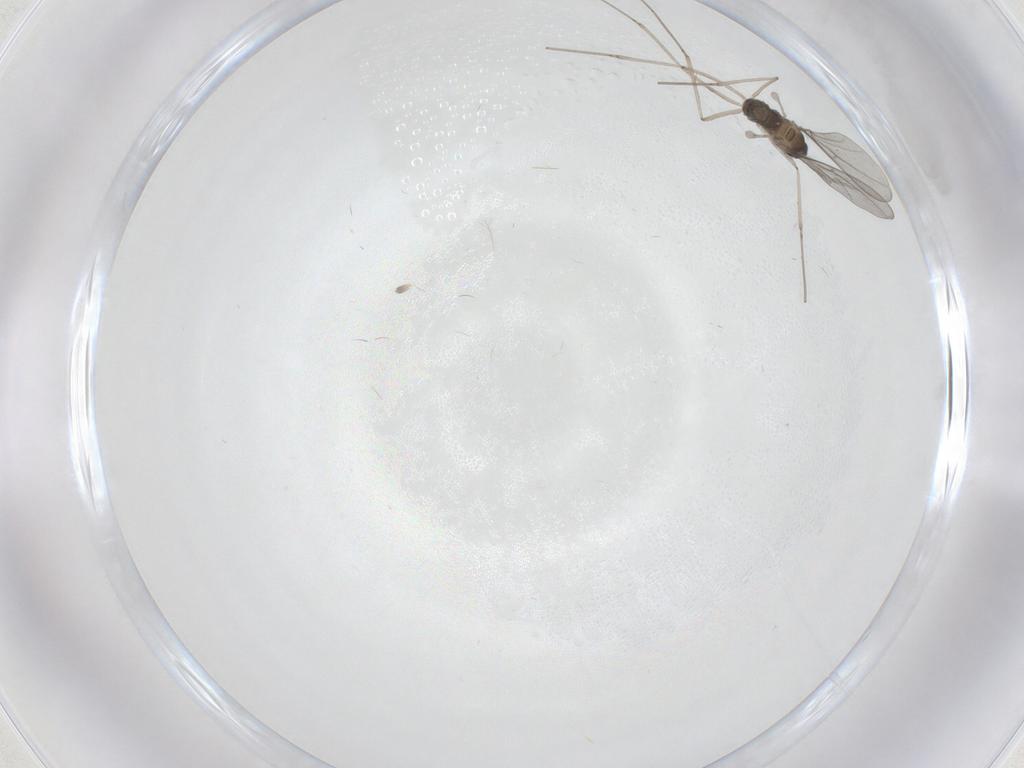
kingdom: Animalia
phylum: Arthropoda
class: Insecta
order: Diptera
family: Cecidomyiidae
